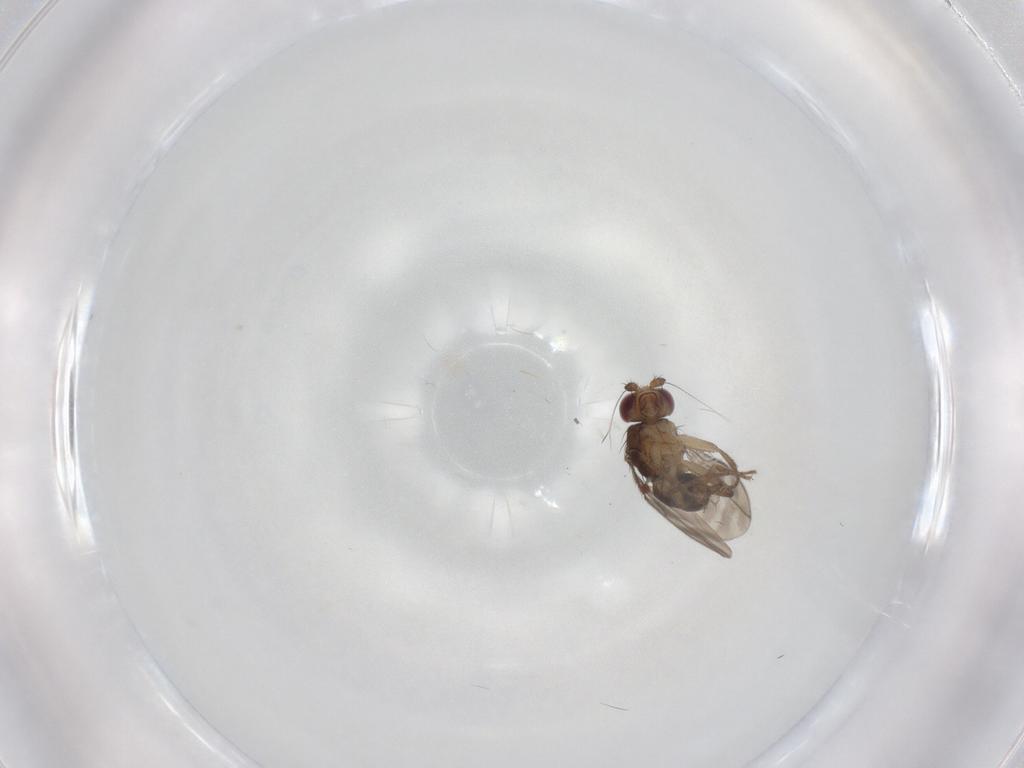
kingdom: Animalia
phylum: Arthropoda
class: Insecta
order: Diptera
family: Sphaeroceridae
